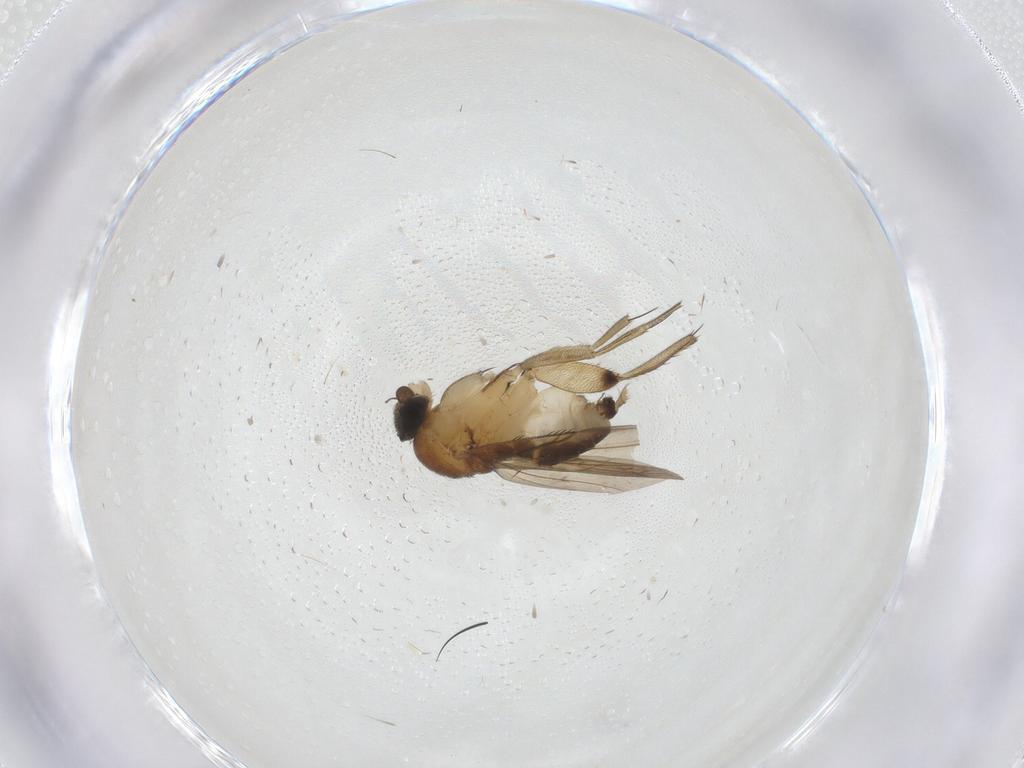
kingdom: Animalia
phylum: Arthropoda
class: Insecta
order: Diptera
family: Phoridae
